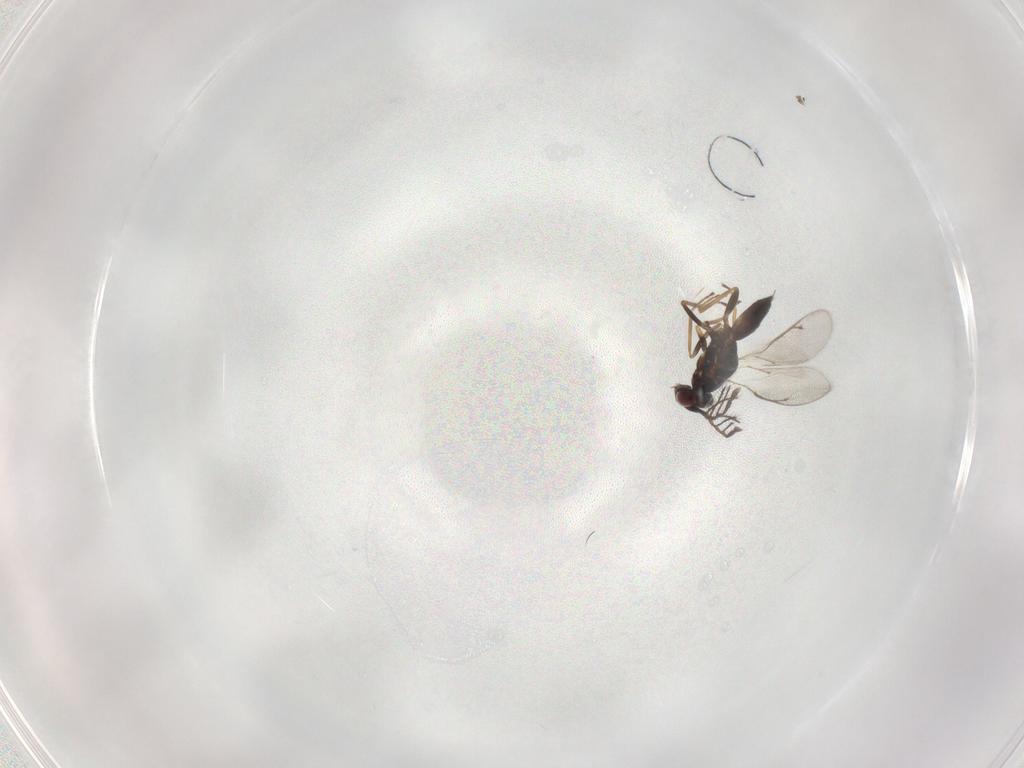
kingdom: Animalia
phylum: Arthropoda
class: Insecta
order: Hymenoptera
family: Eulophidae
